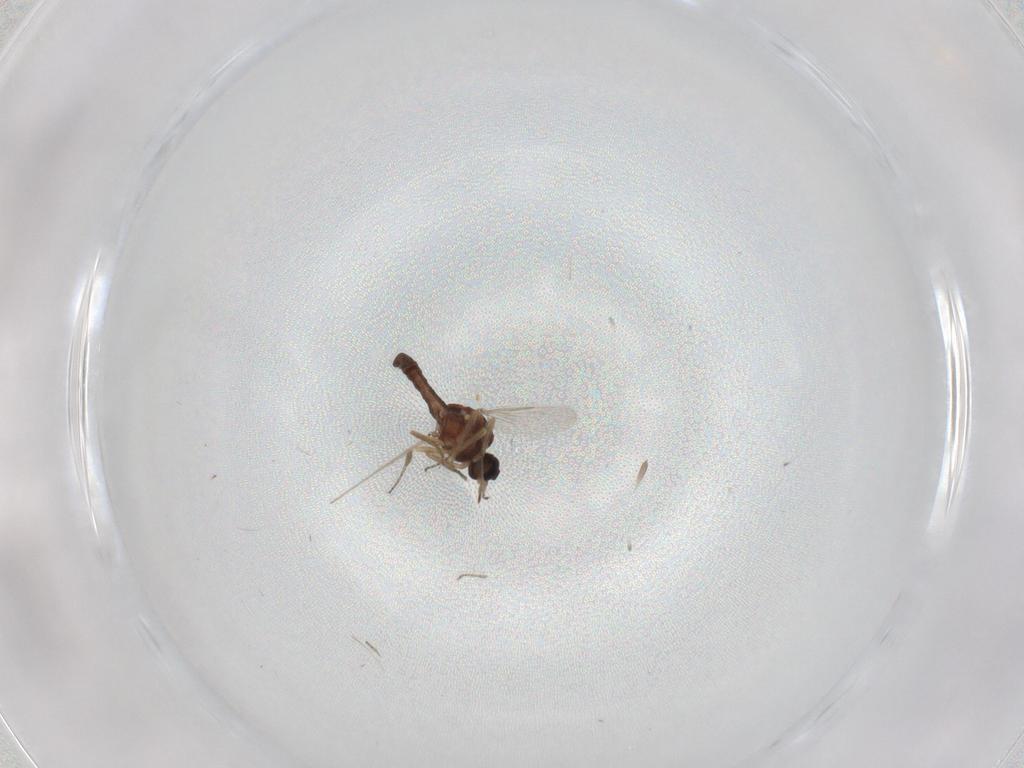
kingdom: Animalia
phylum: Arthropoda
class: Insecta
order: Diptera
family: Ceratopogonidae
